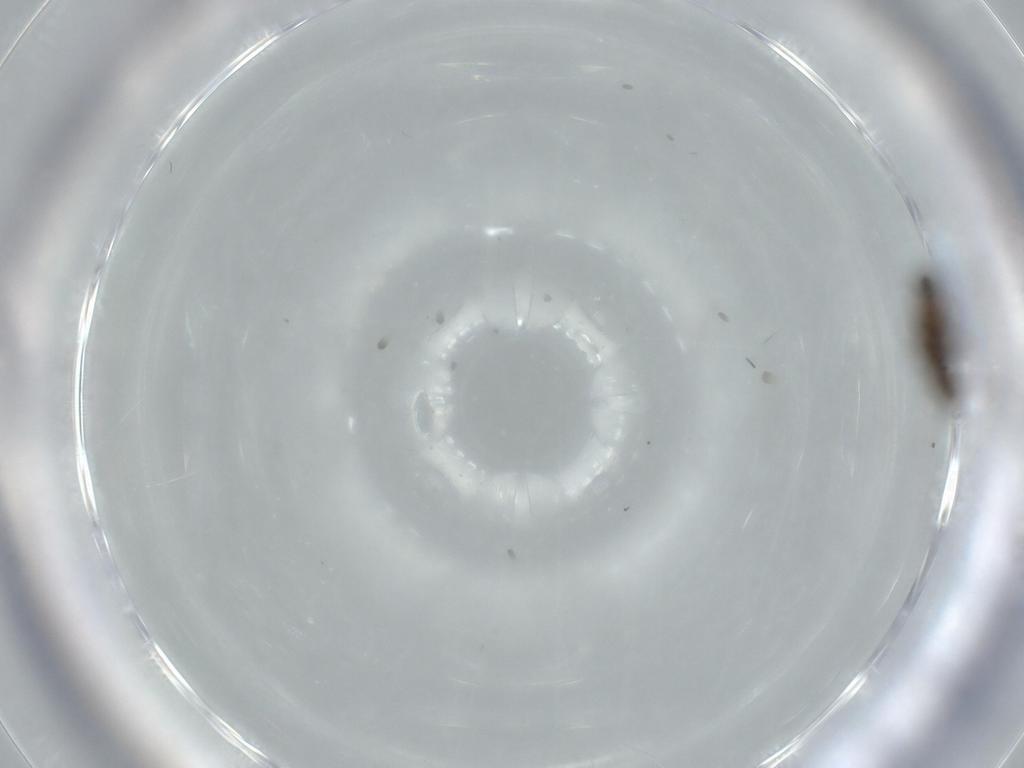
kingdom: Animalia
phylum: Arthropoda
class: Insecta
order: Diptera
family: Phoridae
